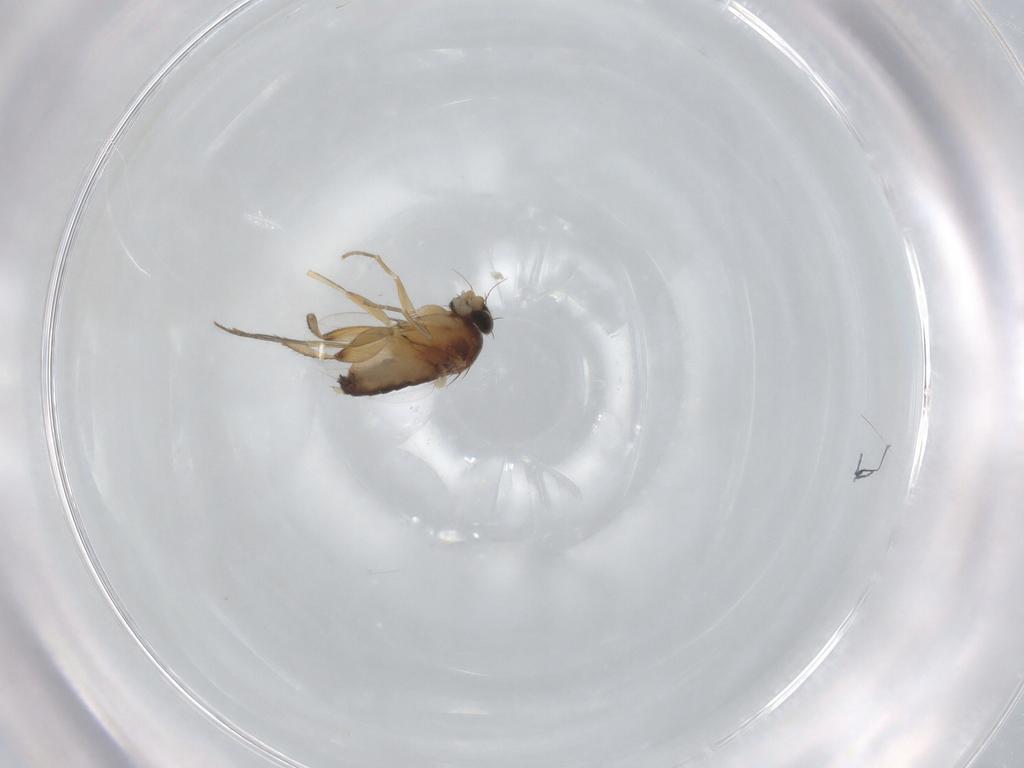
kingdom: Animalia
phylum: Arthropoda
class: Insecta
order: Diptera
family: Phoridae
